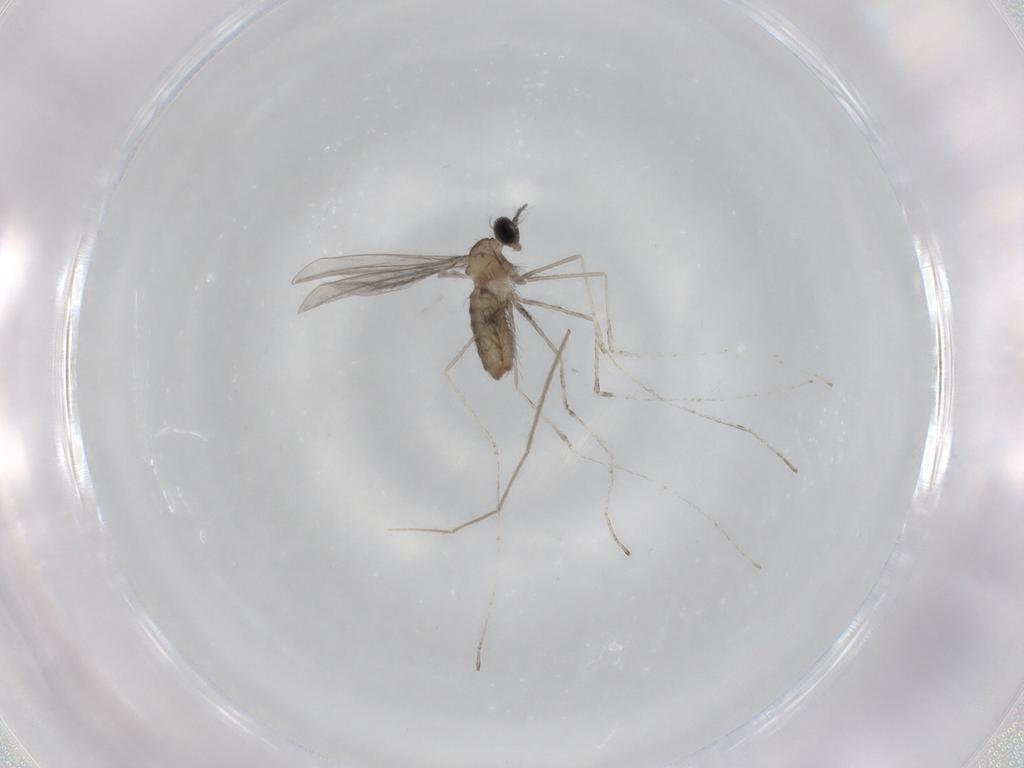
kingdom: Animalia
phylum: Arthropoda
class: Insecta
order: Diptera
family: Cecidomyiidae
